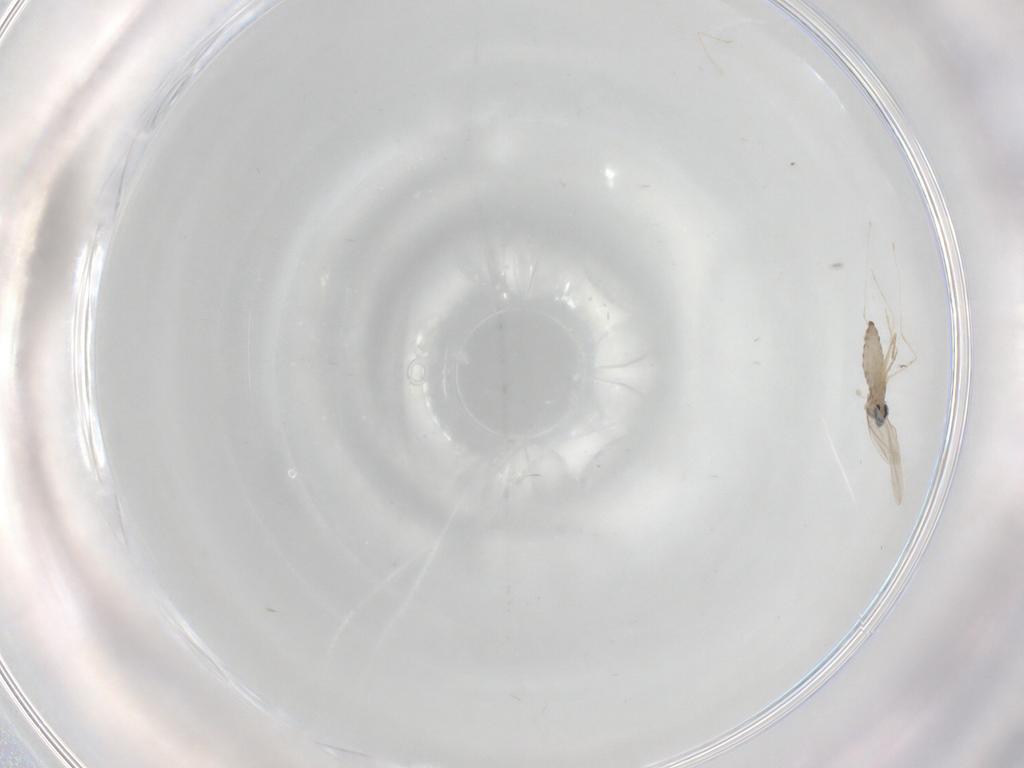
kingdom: Animalia
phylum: Arthropoda
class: Insecta
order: Diptera
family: Cecidomyiidae
